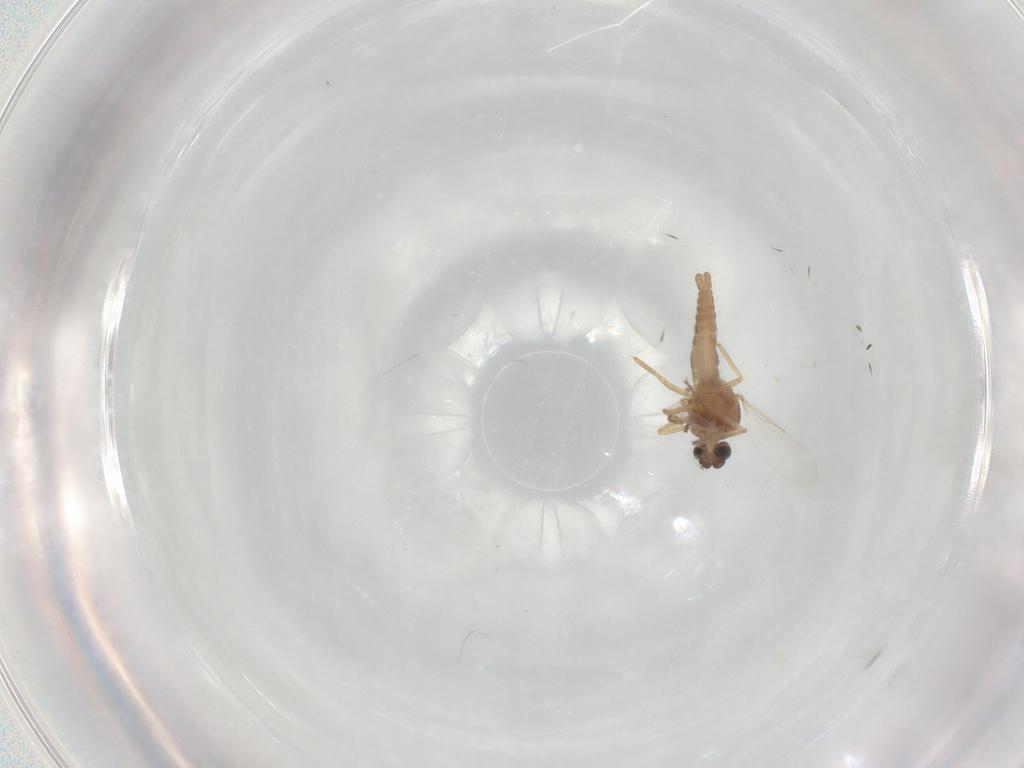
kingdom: Animalia
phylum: Arthropoda
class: Insecta
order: Diptera
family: Ceratopogonidae
